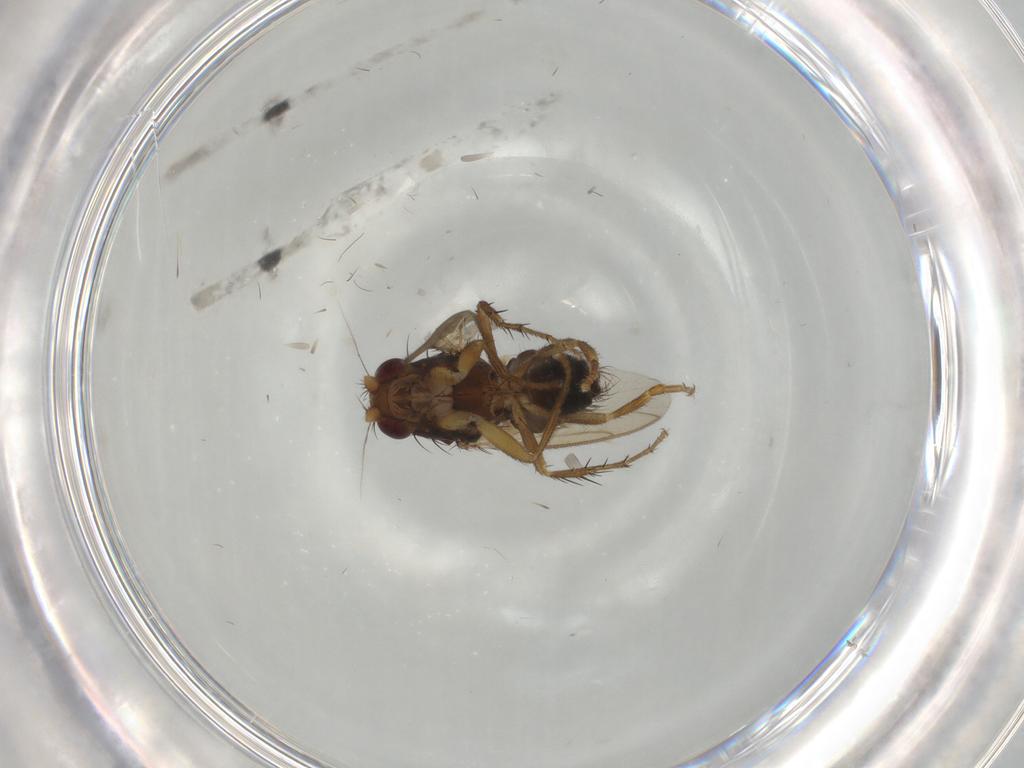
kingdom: Animalia
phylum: Arthropoda
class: Insecta
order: Diptera
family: Sphaeroceridae
